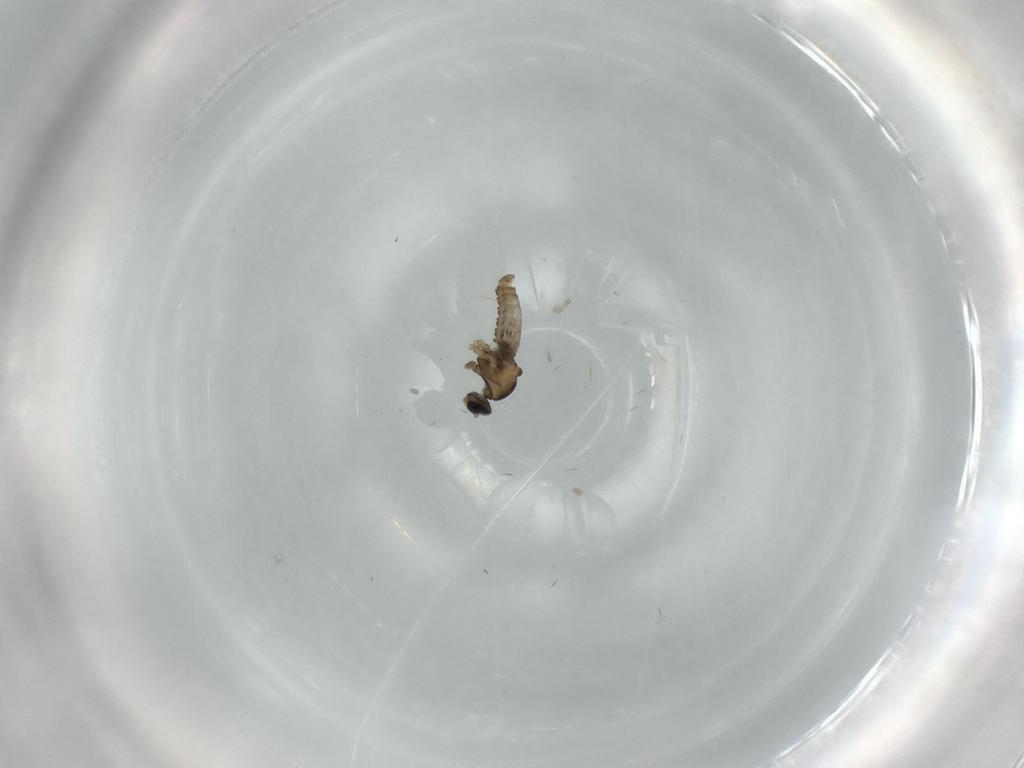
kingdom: Animalia
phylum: Arthropoda
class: Insecta
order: Diptera
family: Cecidomyiidae
